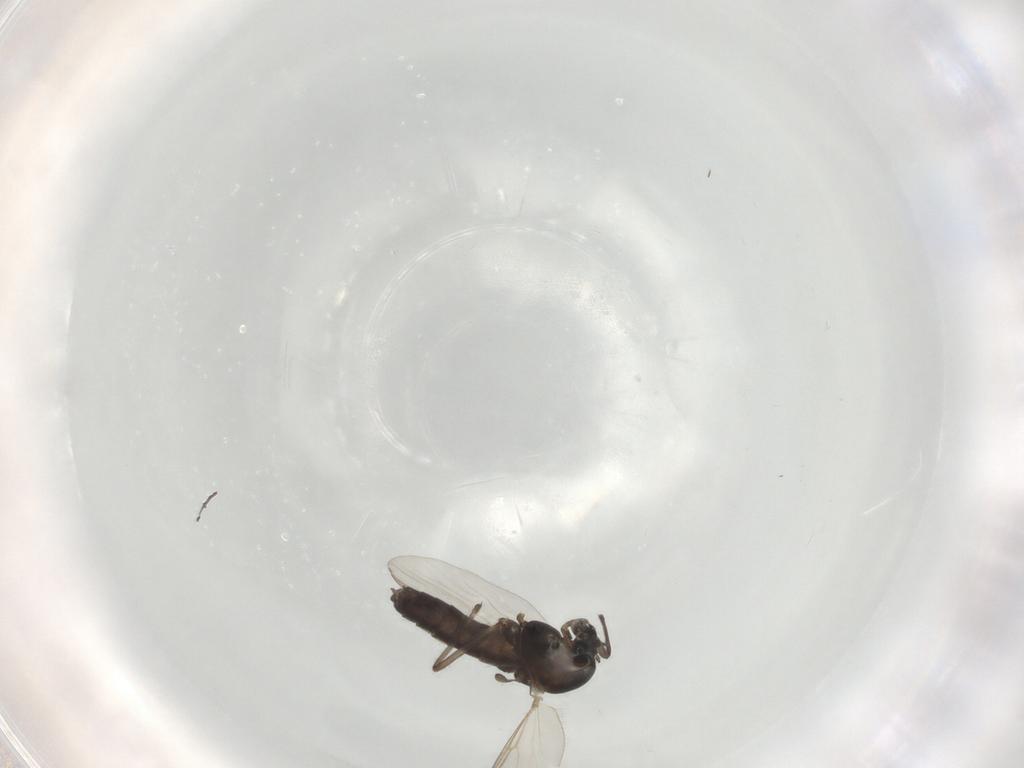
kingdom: Animalia
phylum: Arthropoda
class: Insecta
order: Diptera
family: Chironomidae
